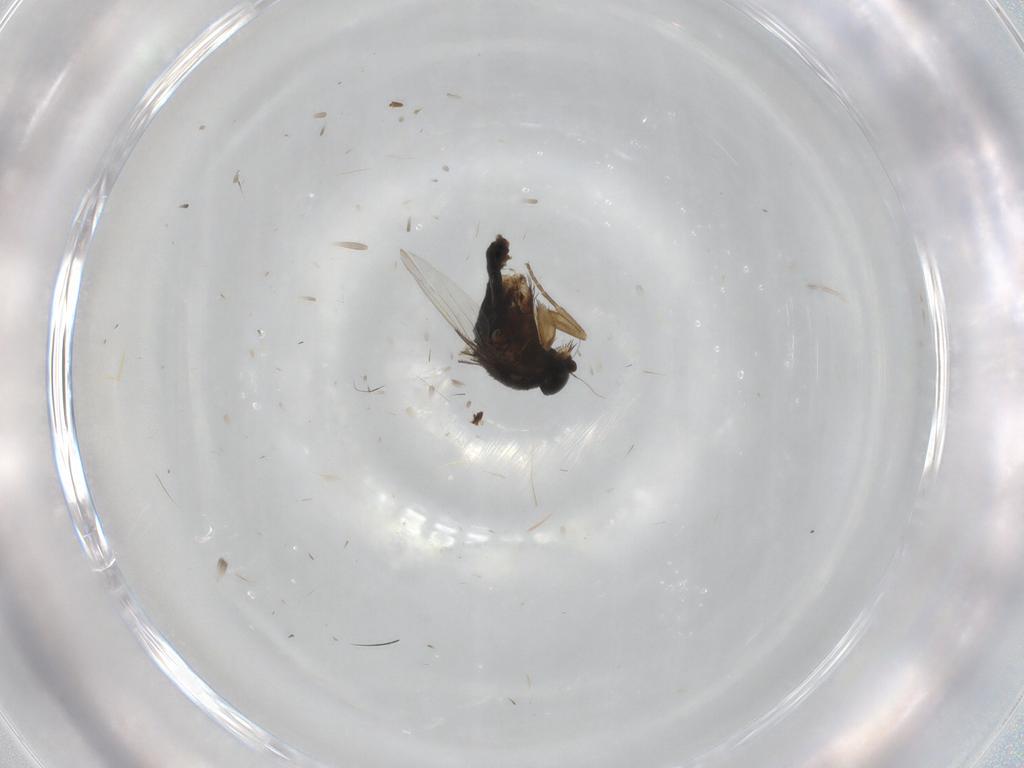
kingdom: Animalia
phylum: Arthropoda
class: Insecta
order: Diptera
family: Phoridae
